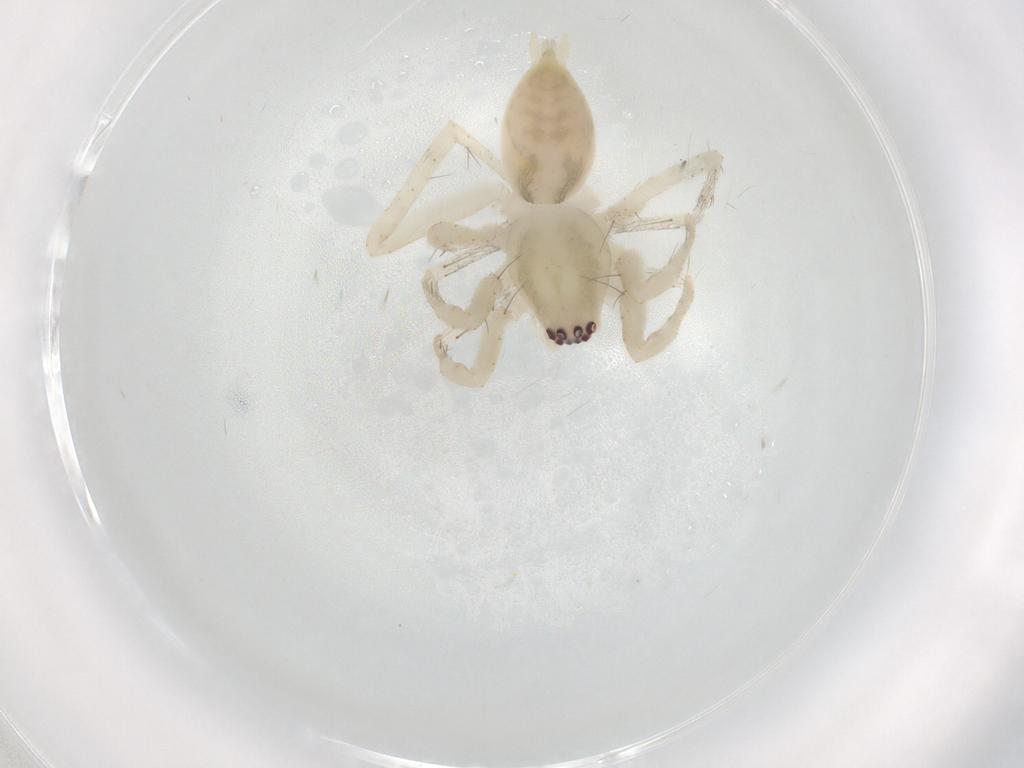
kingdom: Animalia
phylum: Arthropoda
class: Arachnida
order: Araneae
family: Anyphaenidae
